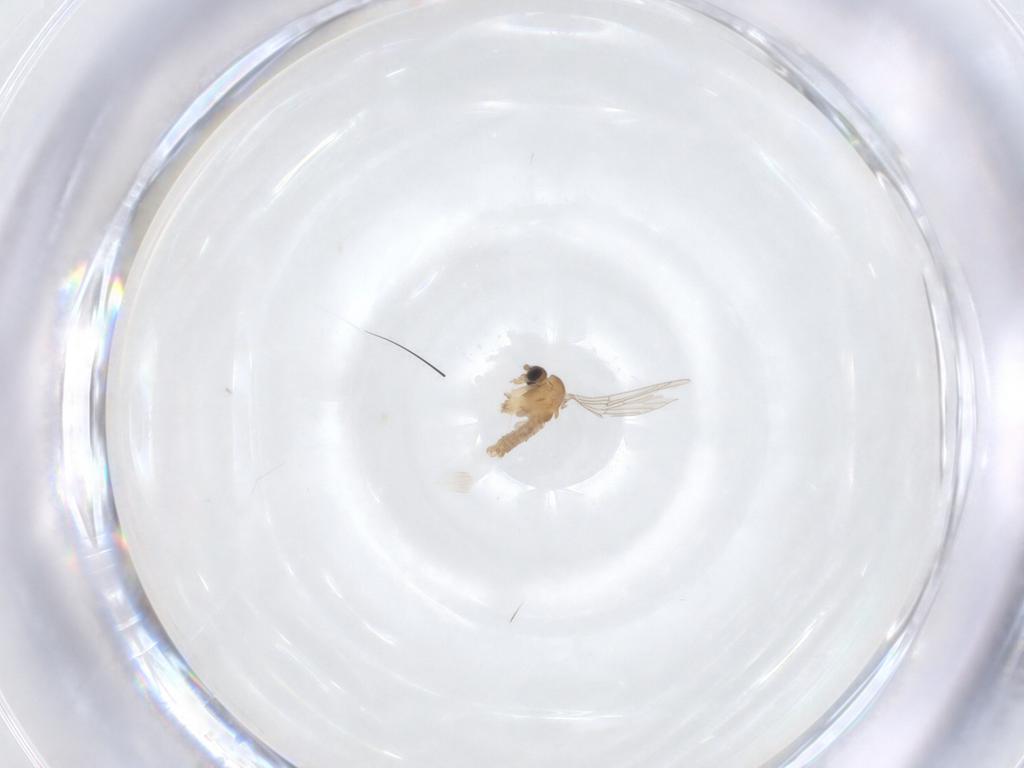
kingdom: Animalia
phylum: Arthropoda
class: Insecta
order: Diptera
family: Psychodidae
